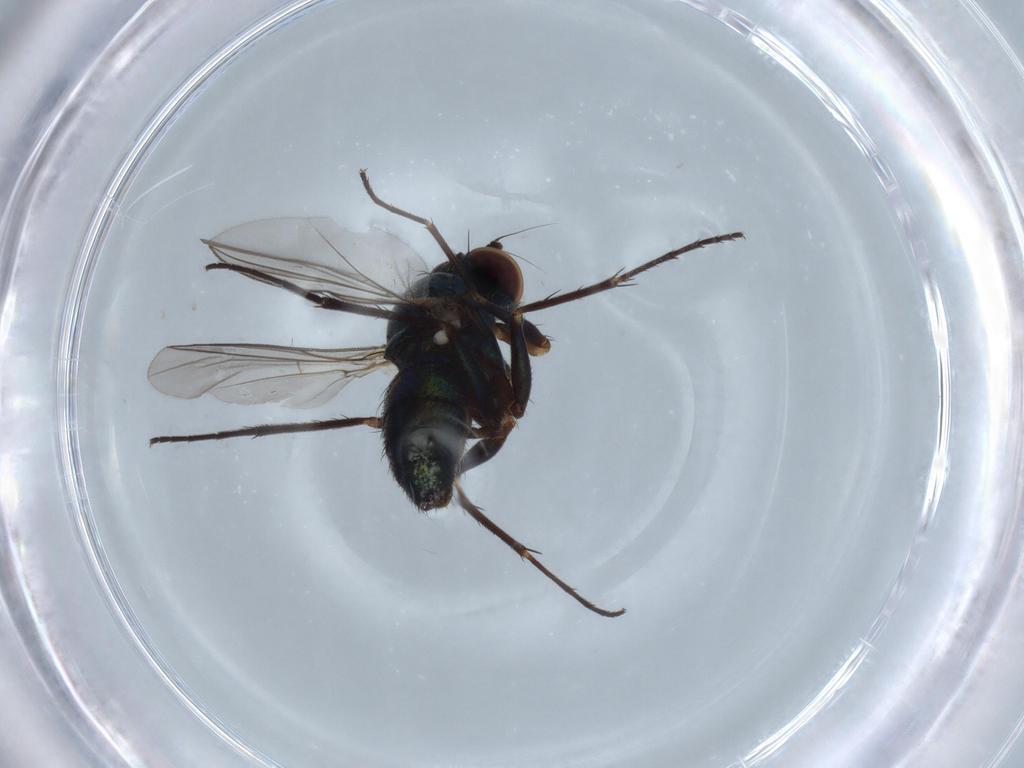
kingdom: Animalia
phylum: Arthropoda
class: Insecta
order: Diptera
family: Dolichopodidae
